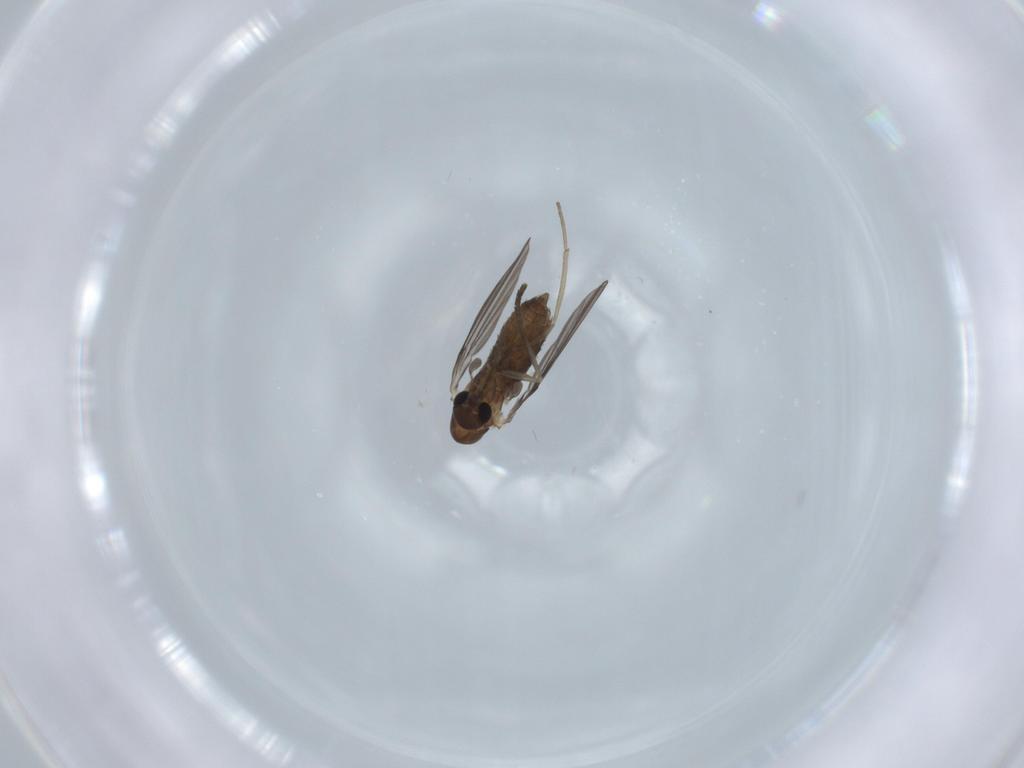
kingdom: Animalia
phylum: Arthropoda
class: Insecta
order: Diptera
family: Psychodidae
